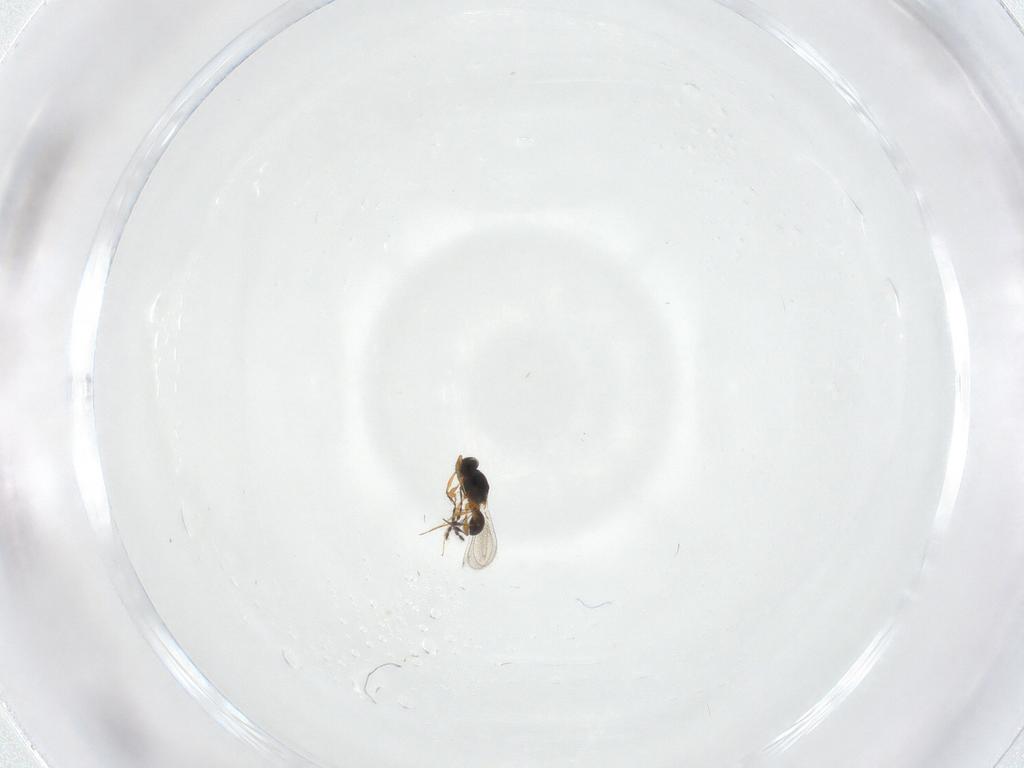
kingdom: Animalia
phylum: Arthropoda
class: Insecta
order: Hymenoptera
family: Platygastridae
